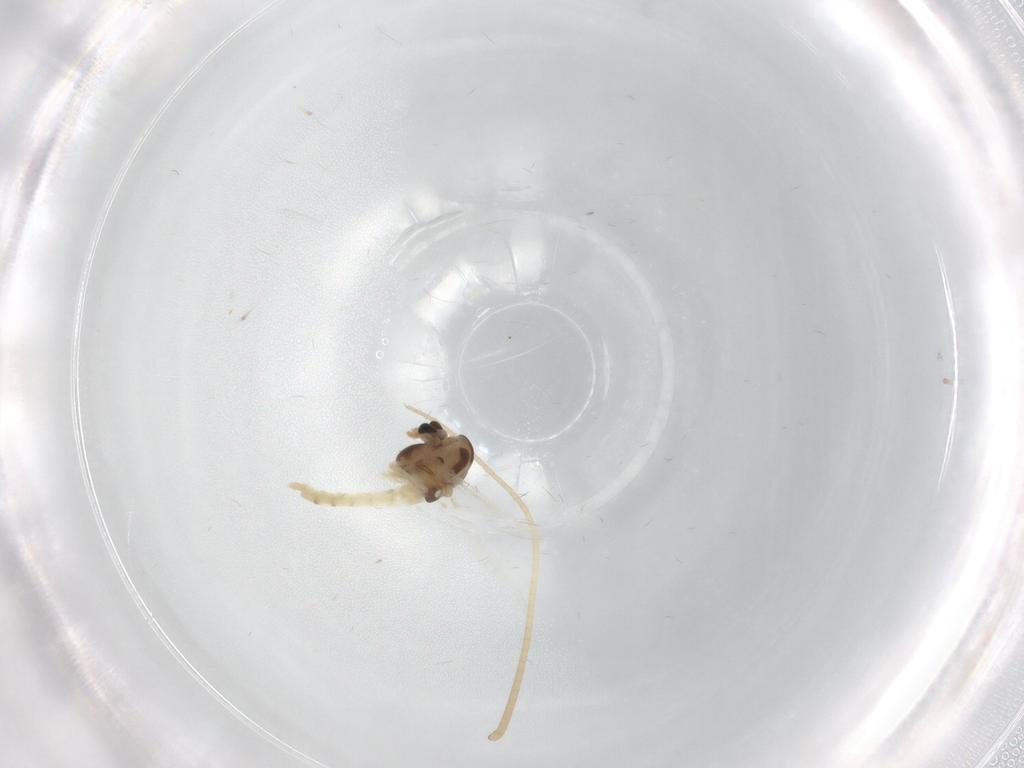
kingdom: Animalia
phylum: Arthropoda
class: Insecta
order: Diptera
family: Chironomidae
